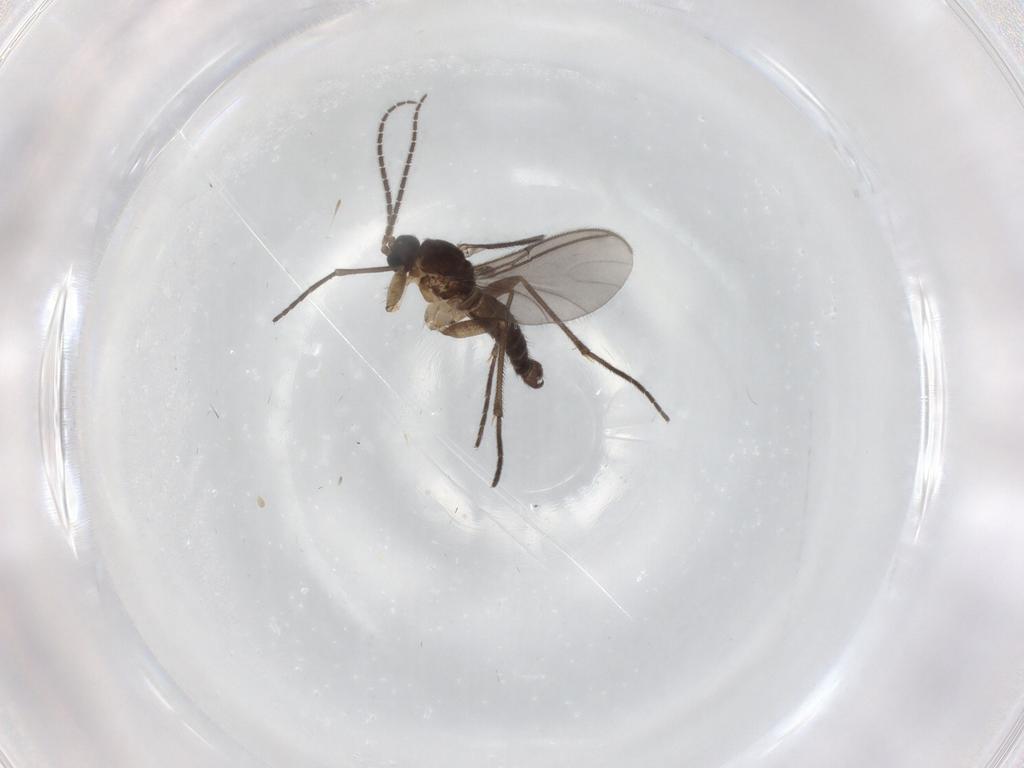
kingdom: Animalia
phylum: Arthropoda
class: Insecta
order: Diptera
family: Sciaridae
